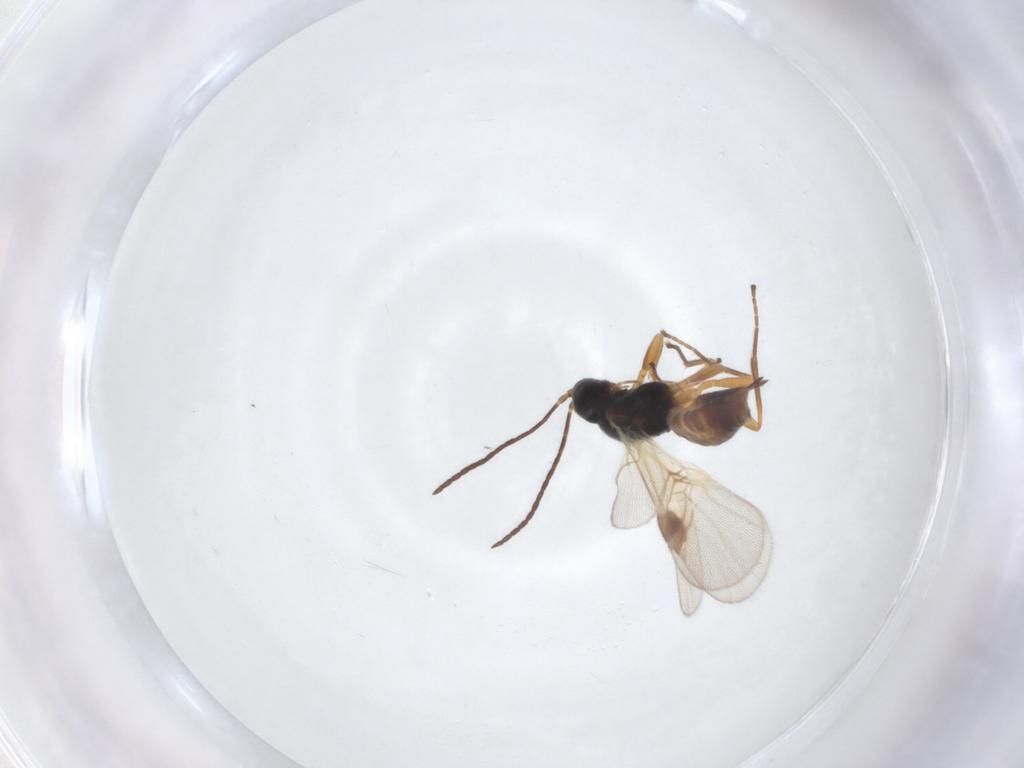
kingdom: Animalia
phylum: Arthropoda
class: Insecta
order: Hymenoptera
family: Braconidae
